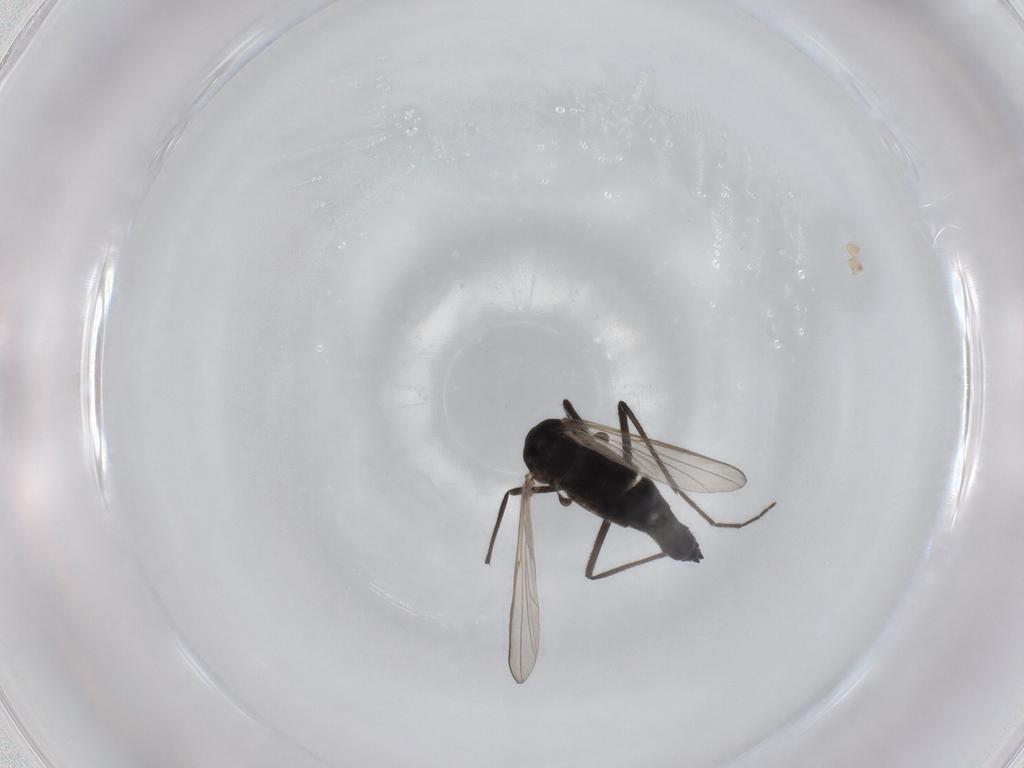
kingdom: Animalia
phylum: Arthropoda
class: Insecta
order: Diptera
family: Chironomidae
